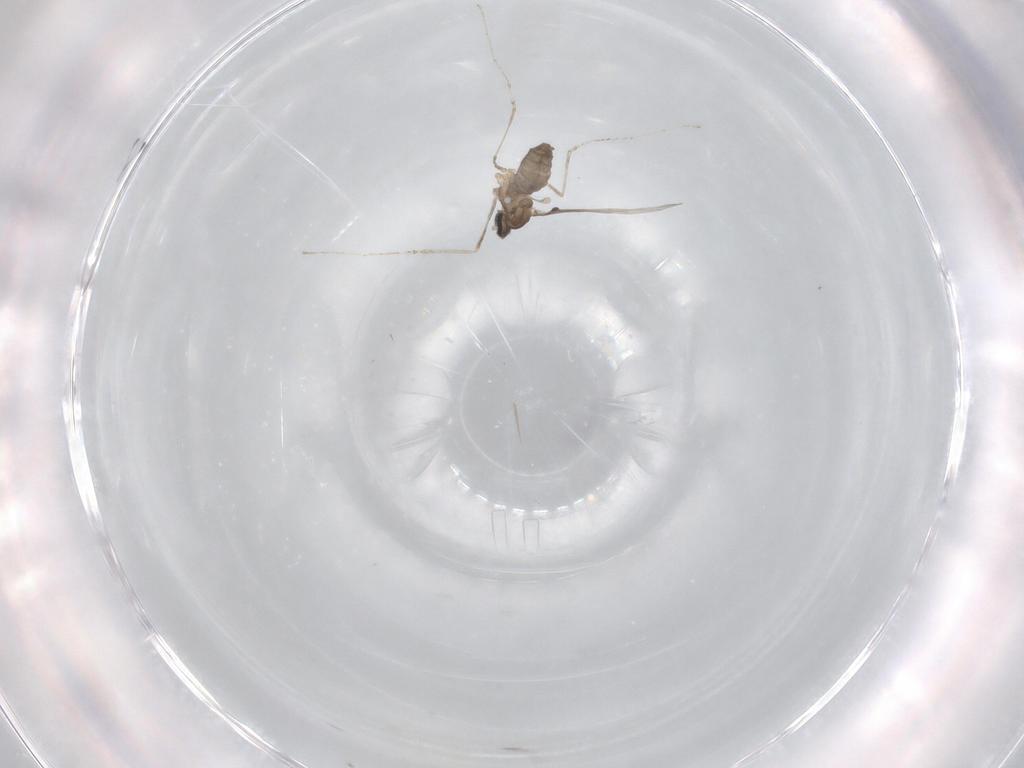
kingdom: Animalia
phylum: Arthropoda
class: Insecta
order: Diptera
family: Cecidomyiidae
